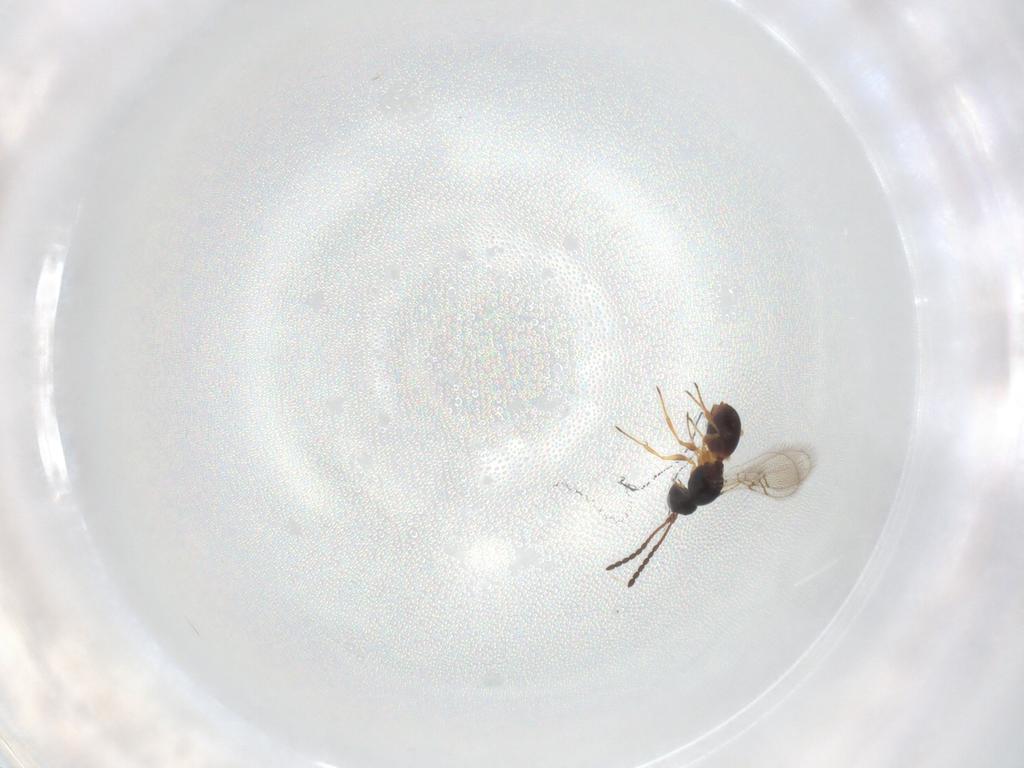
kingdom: Animalia
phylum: Arthropoda
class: Insecta
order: Hymenoptera
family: Figitidae
